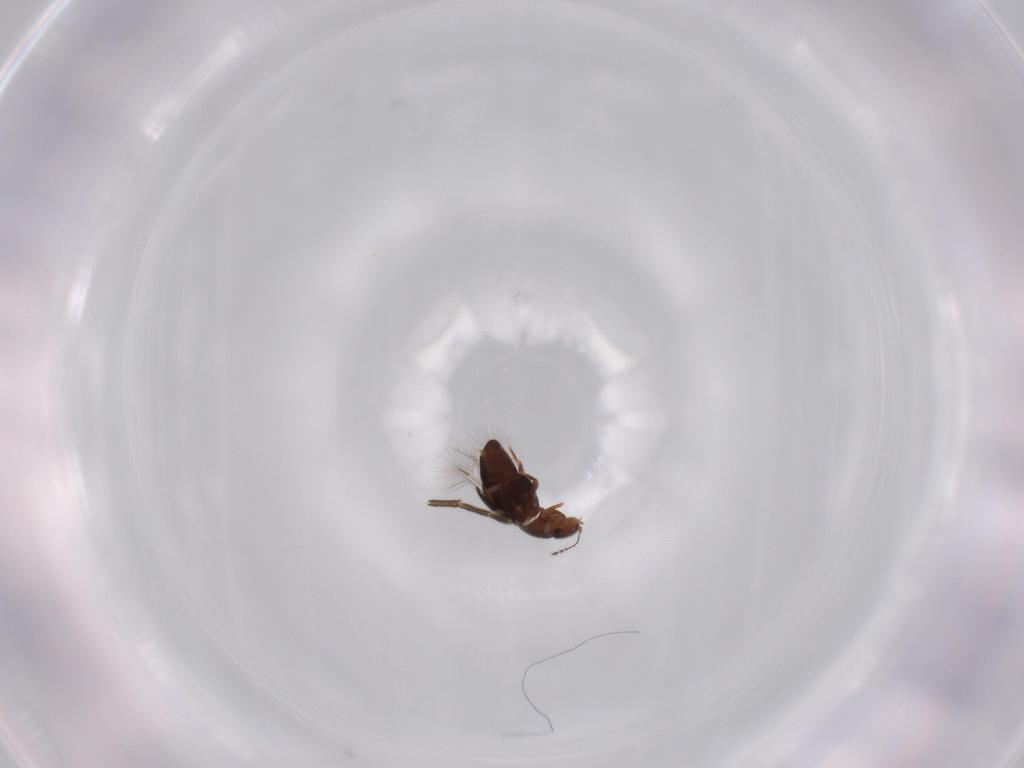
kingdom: Animalia
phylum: Arthropoda
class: Insecta
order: Coleoptera
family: Ptiliidae
